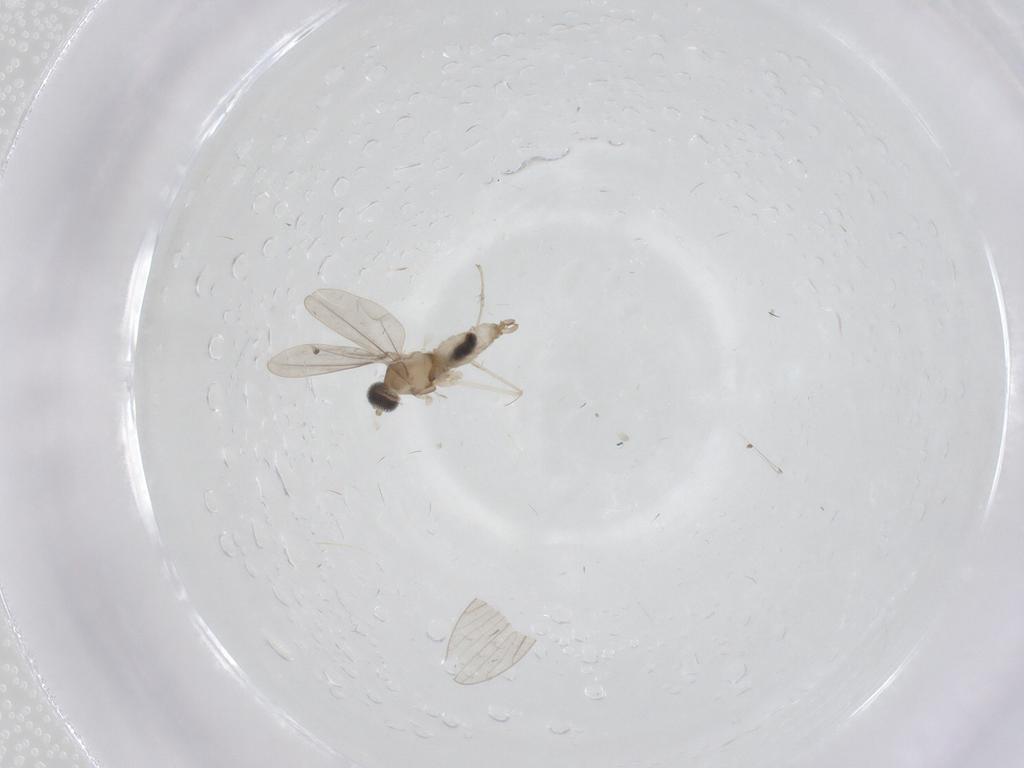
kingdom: Animalia
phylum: Arthropoda
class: Insecta
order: Diptera
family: Cecidomyiidae
